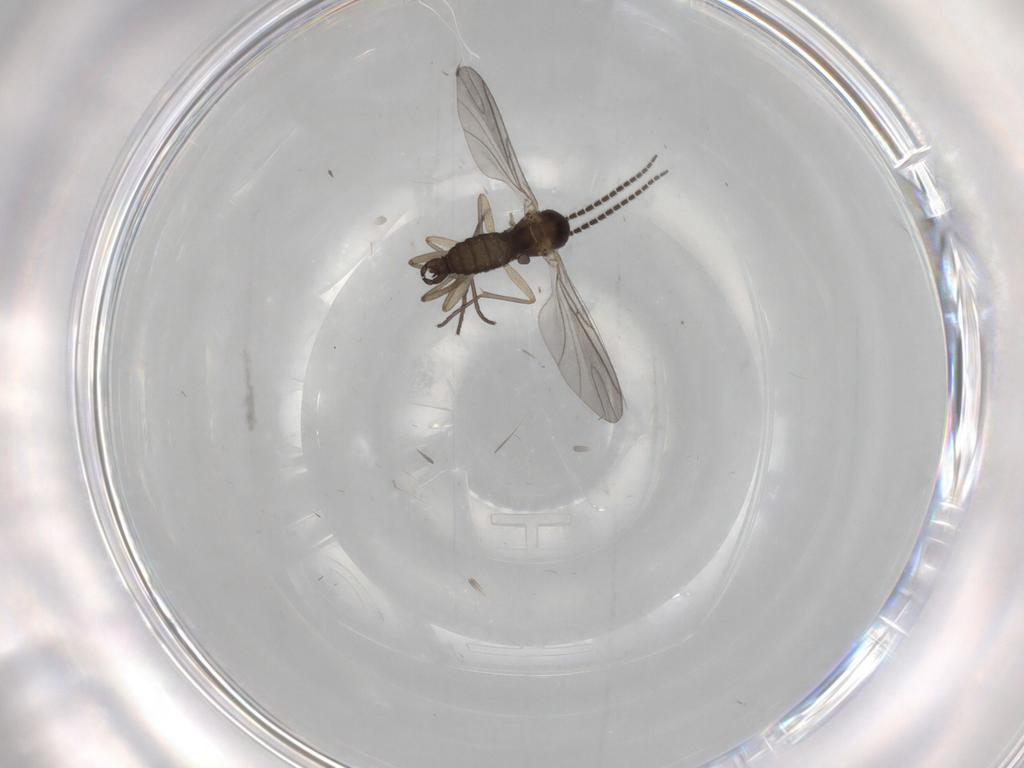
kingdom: Animalia
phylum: Arthropoda
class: Insecta
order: Diptera
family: Sciaridae
